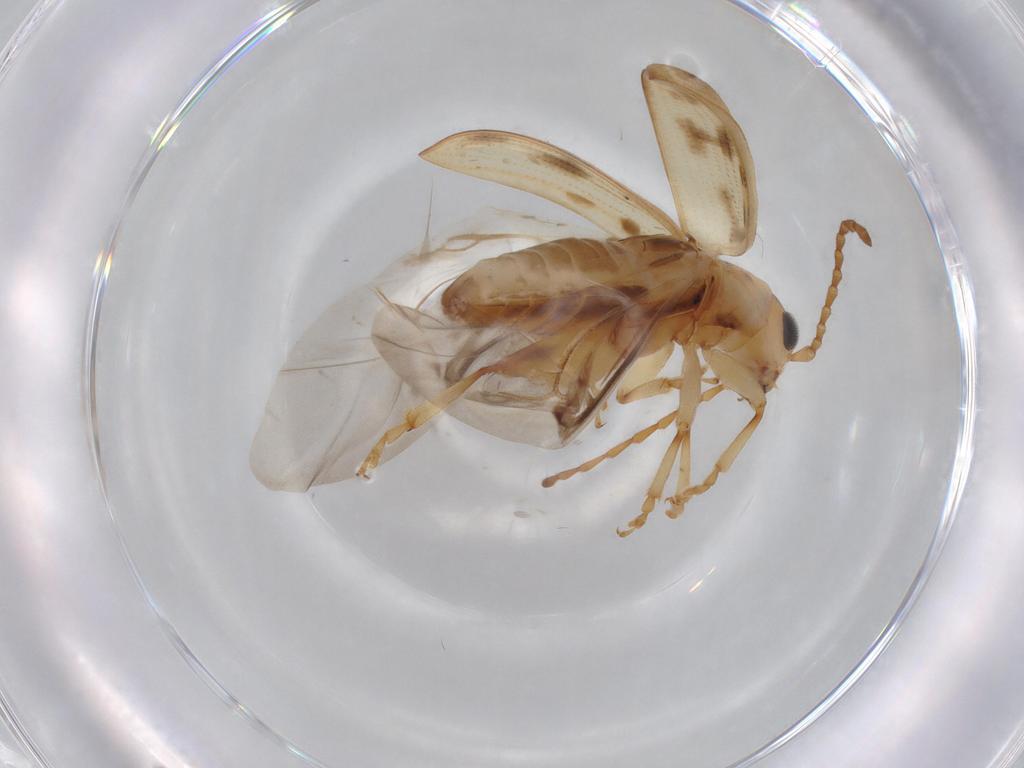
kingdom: Animalia
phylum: Arthropoda
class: Insecta
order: Coleoptera
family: Chrysomelidae
